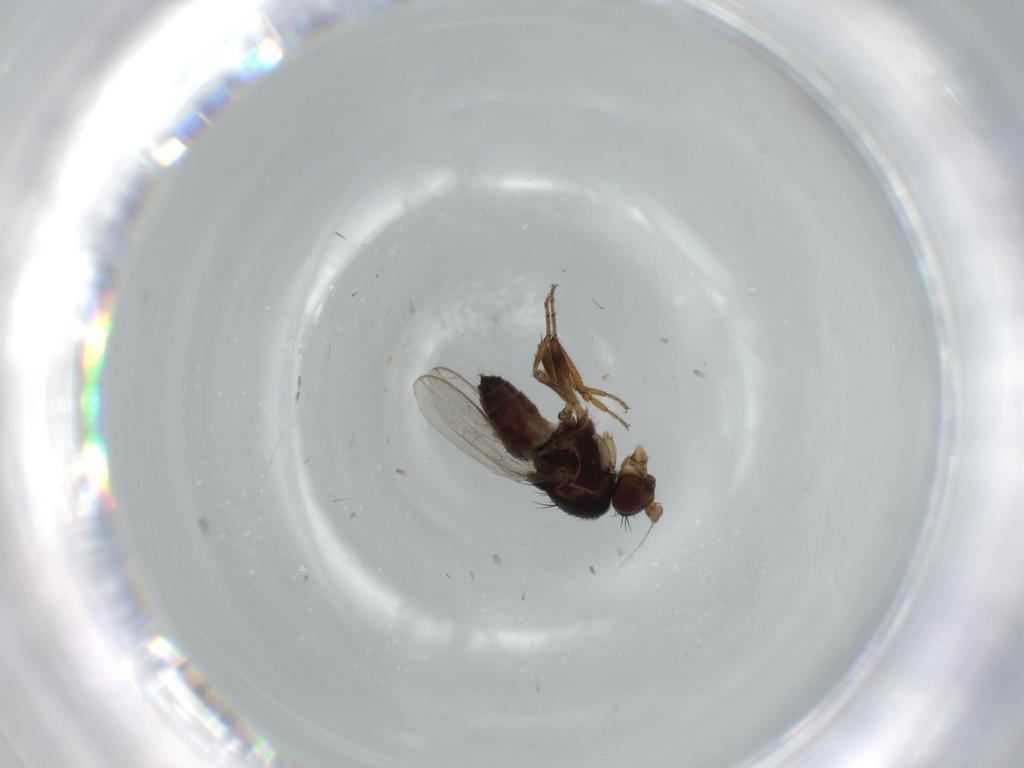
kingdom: Animalia
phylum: Arthropoda
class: Insecta
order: Diptera
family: Sphaeroceridae
